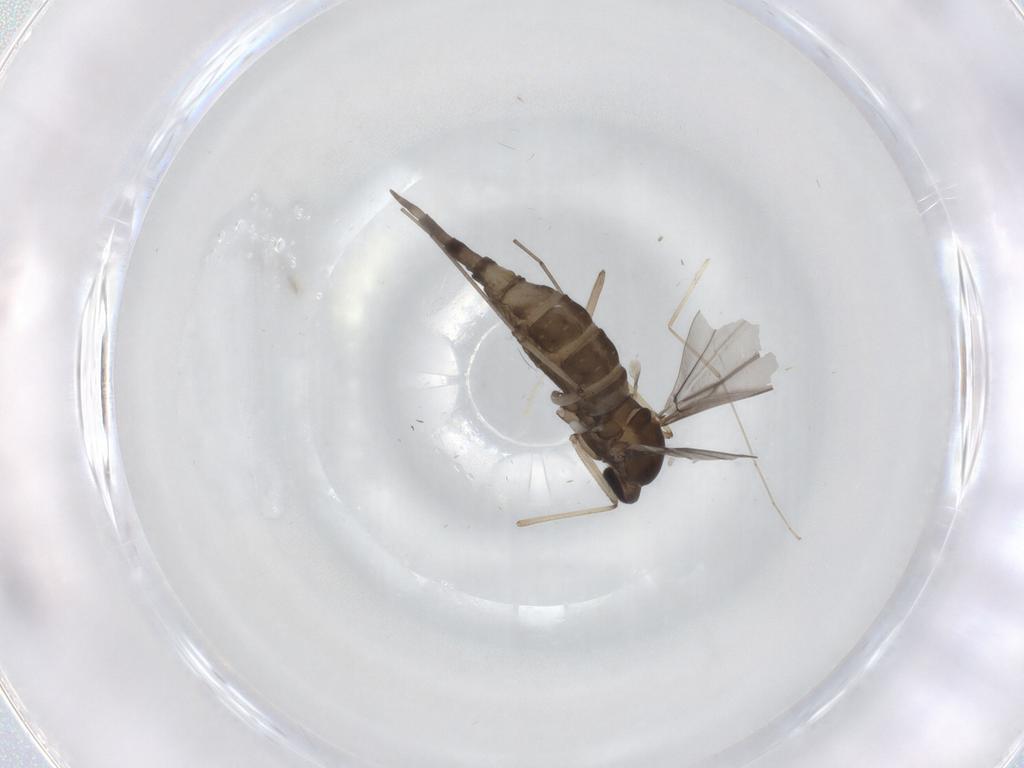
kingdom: Animalia
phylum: Arthropoda
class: Insecta
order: Diptera
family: Cecidomyiidae
